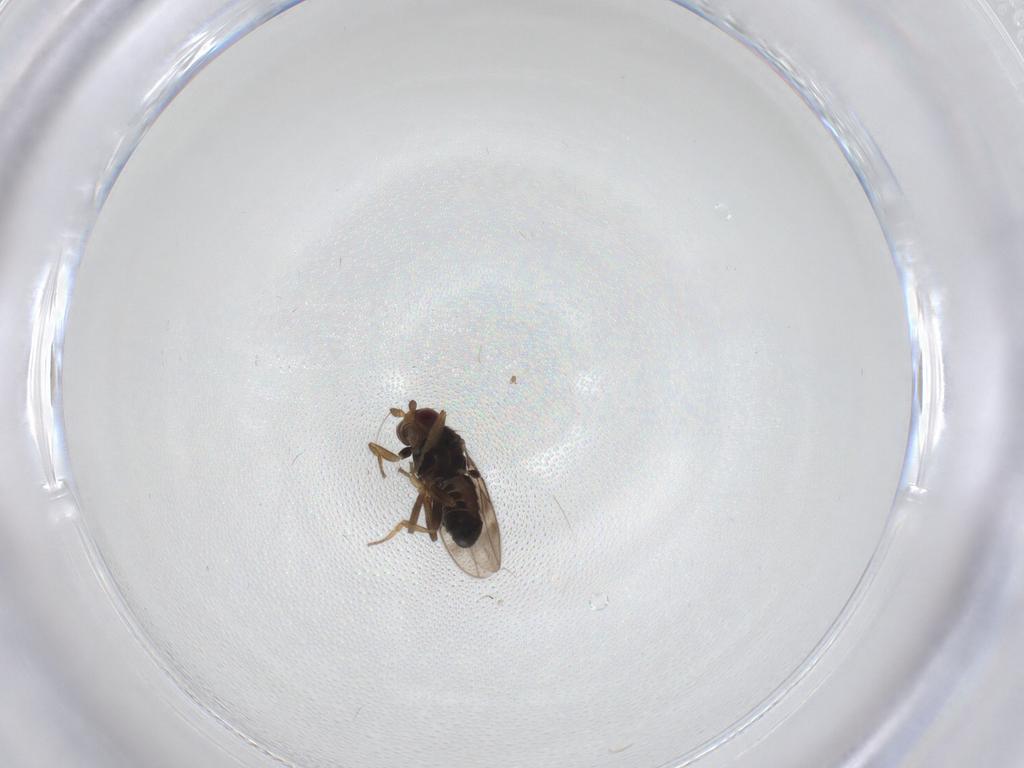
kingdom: Animalia
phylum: Arthropoda
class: Insecta
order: Diptera
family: Sphaeroceridae
